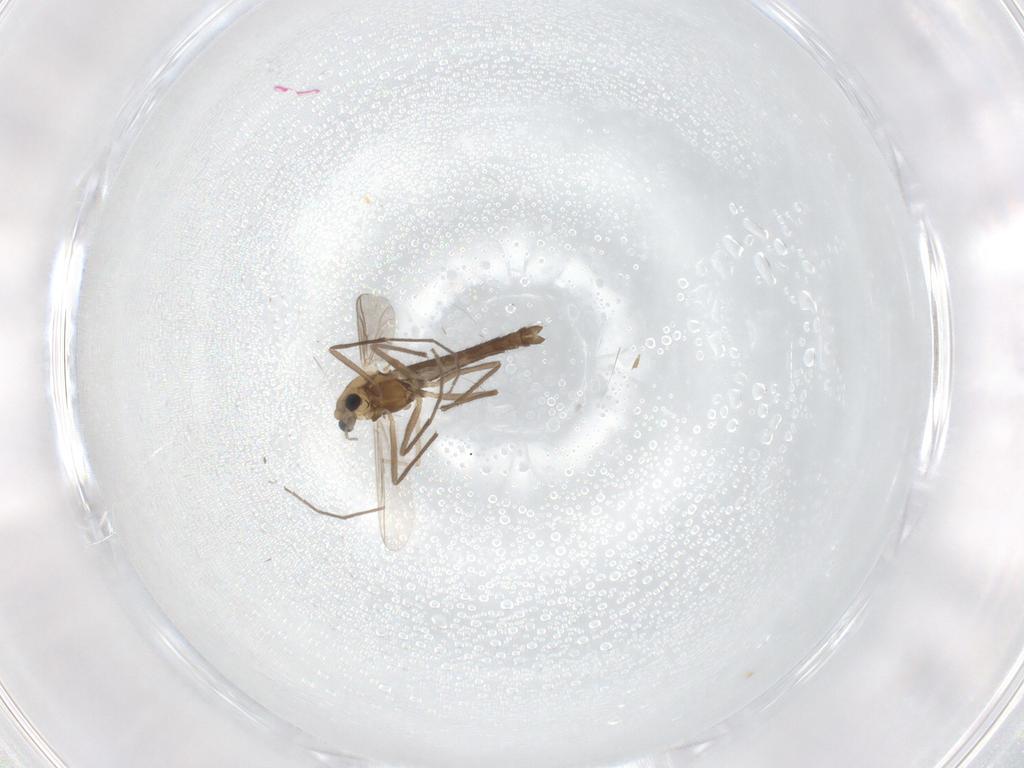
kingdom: Animalia
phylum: Arthropoda
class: Insecta
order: Diptera
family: Chironomidae
